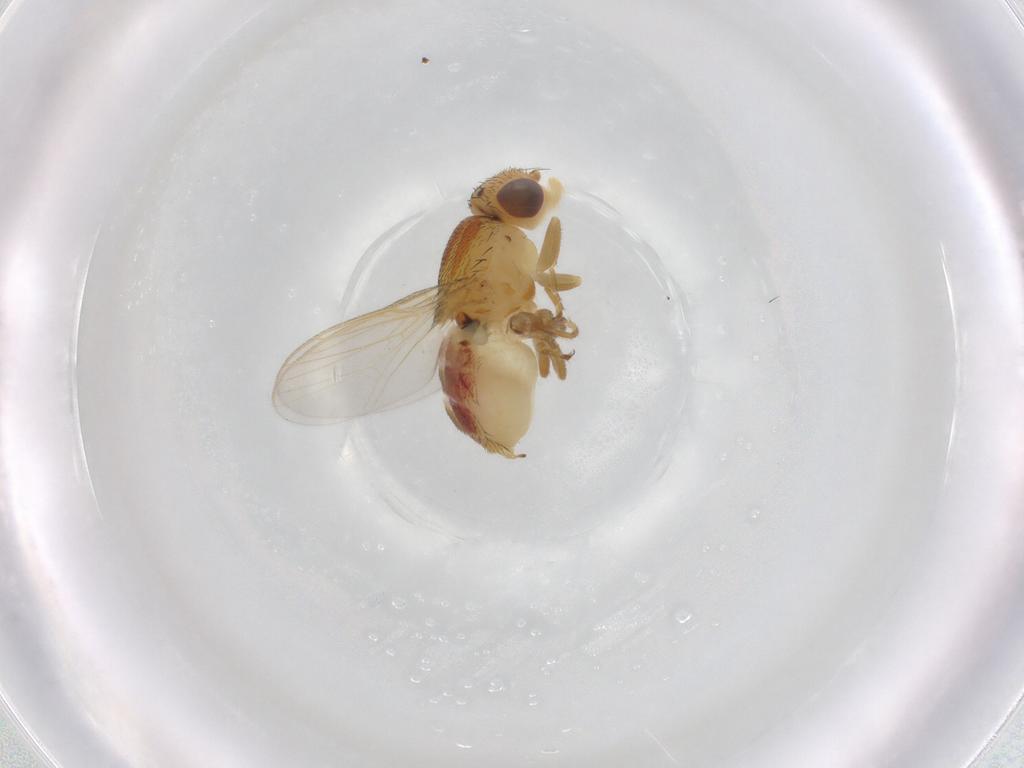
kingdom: Animalia
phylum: Arthropoda
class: Insecta
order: Diptera
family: Chloropidae
